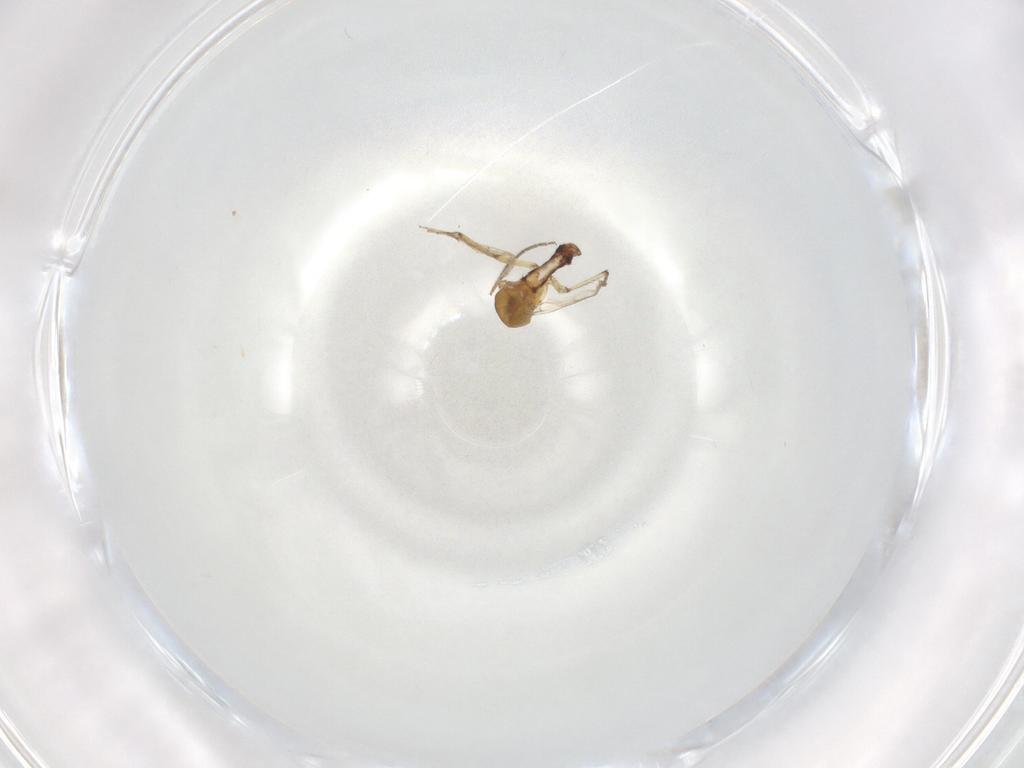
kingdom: Animalia
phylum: Arthropoda
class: Insecta
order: Diptera
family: Ceratopogonidae
